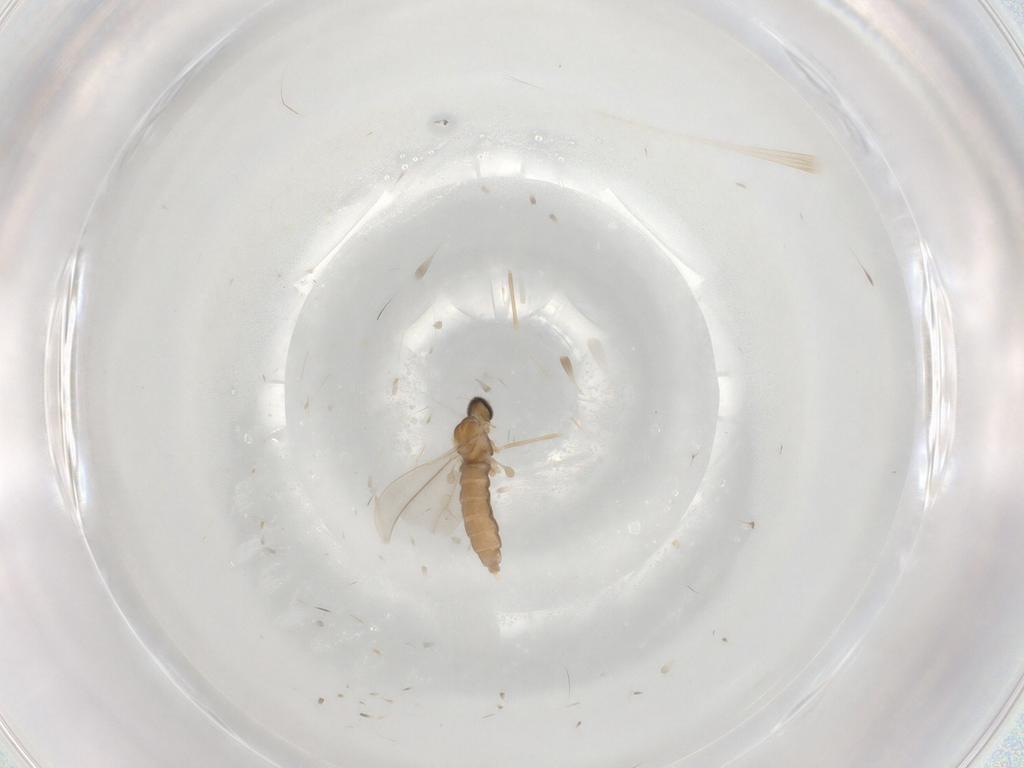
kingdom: Animalia
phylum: Arthropoda
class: Insecta
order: Diptera
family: Cecidomyiidae
